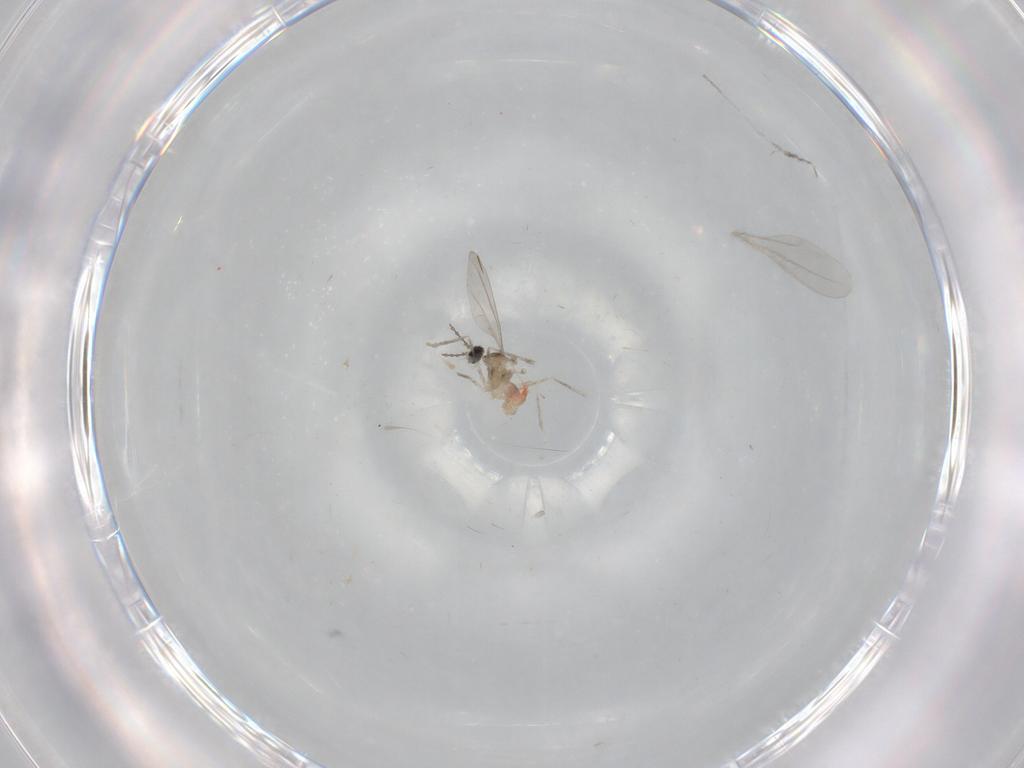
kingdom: Animalia
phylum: Arthropoda
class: Insecta
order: Diptera
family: Cecidomyiidae
